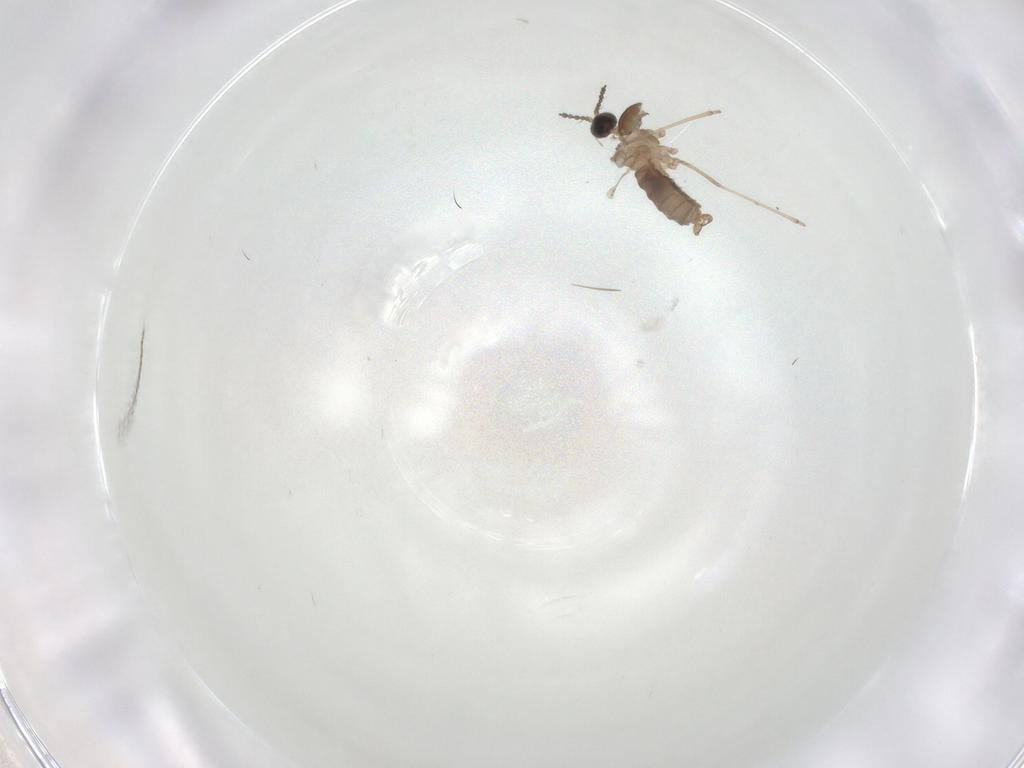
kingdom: Animalia
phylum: Arthropoda
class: Insecta
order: Diptera
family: Cecidomyiidae
